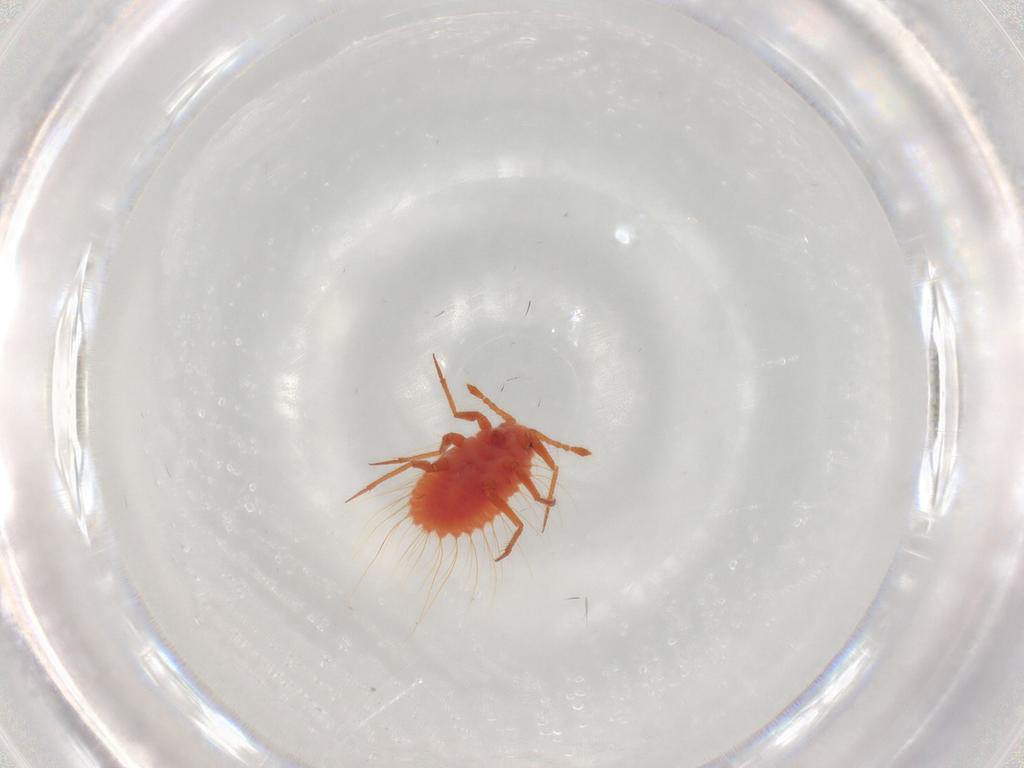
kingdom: Animalia
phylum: Arthropoda
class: Insecta
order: Hemiptera
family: Monophlebidae
